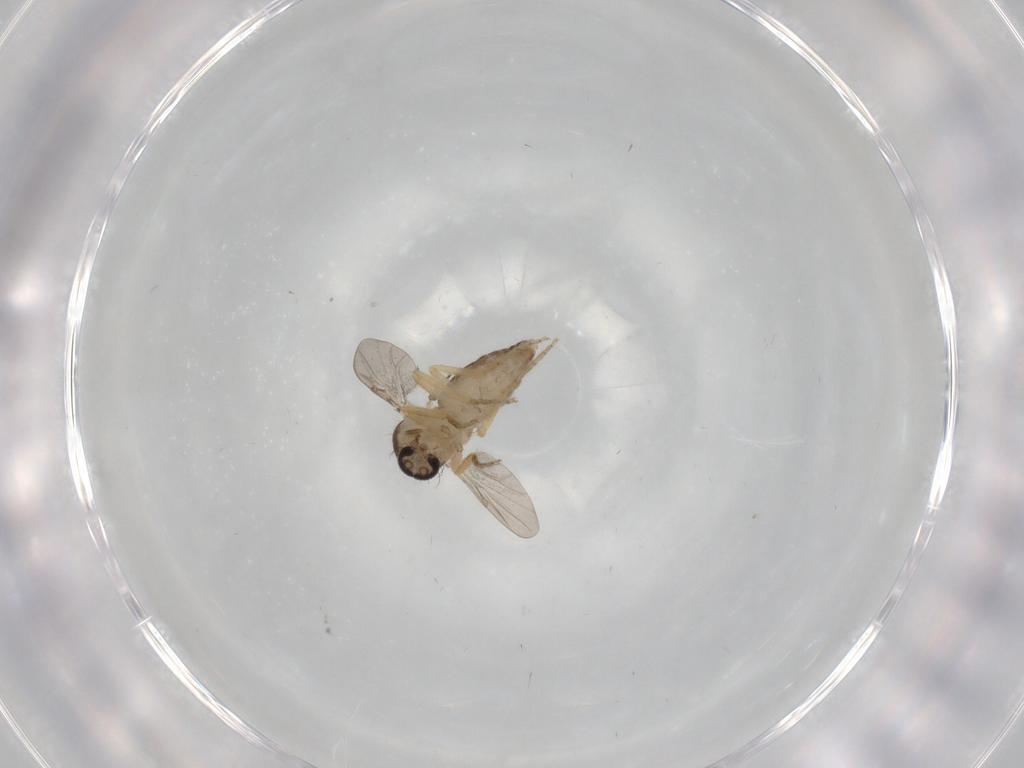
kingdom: Animalia
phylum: Arthropoda
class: Insecta
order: Diptera
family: Ceratopogonidae
